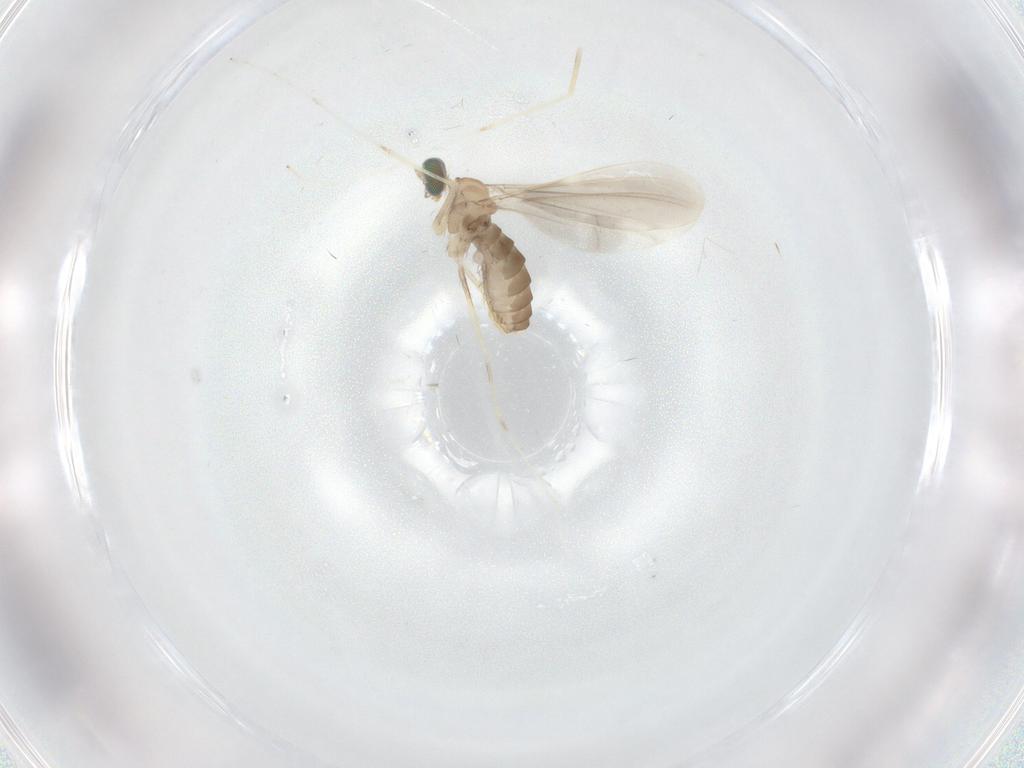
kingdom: Animalia
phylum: Arthropoda
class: Insecta
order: Diptera
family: Cecidomyiidae
